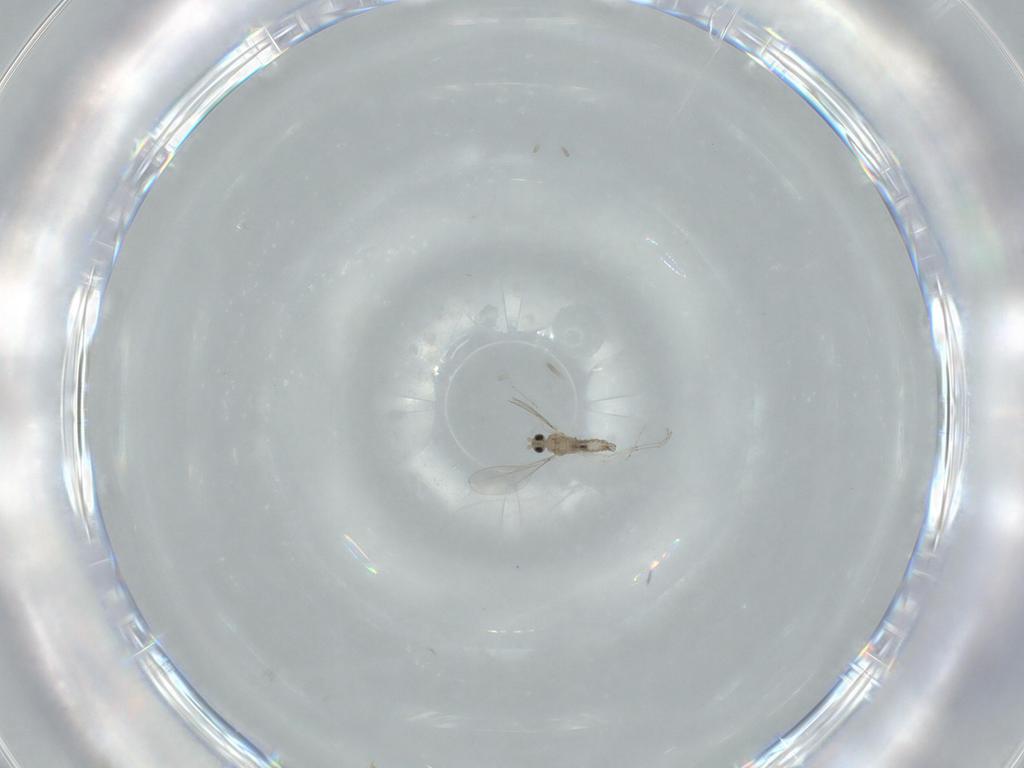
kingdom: Animalia
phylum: Arthropoda
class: Insecta
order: Diptera
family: Cecidomyiidae
